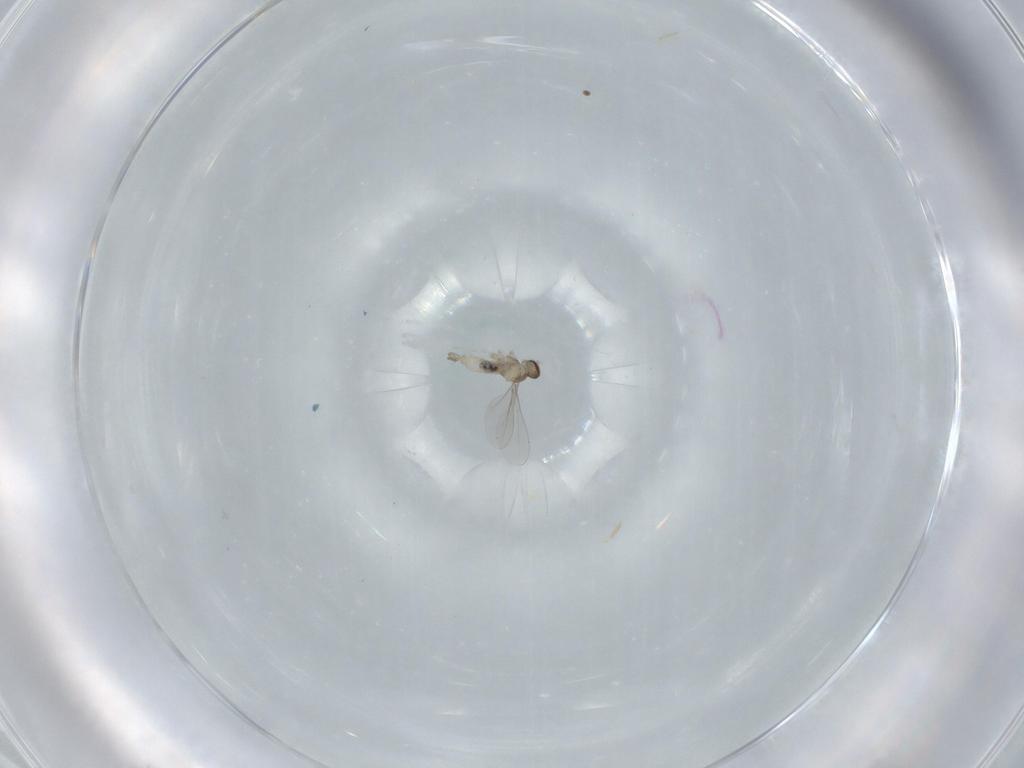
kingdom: Animalia
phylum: Arthropoda
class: Insecta
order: Diptera
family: Cecidomyiidae
